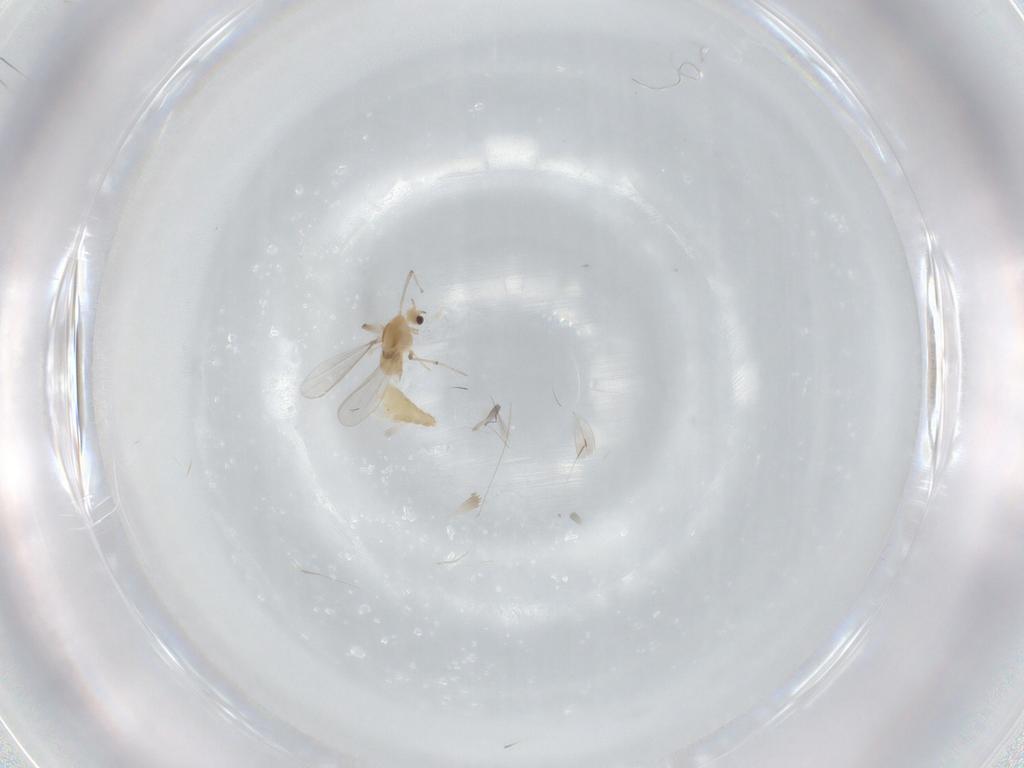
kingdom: Animalia
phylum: Arthropoda
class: Insecta
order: Diptera
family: Chironomidae
